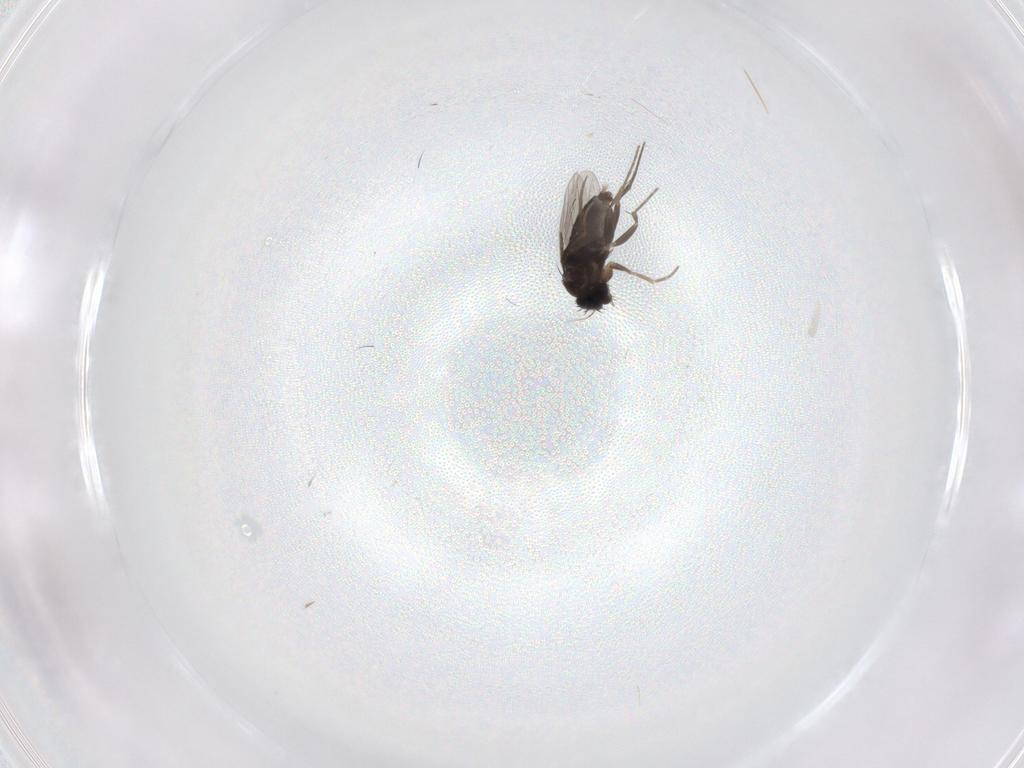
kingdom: Animalia
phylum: Arthropoda
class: Insecta
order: Diptera
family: Phoridae
